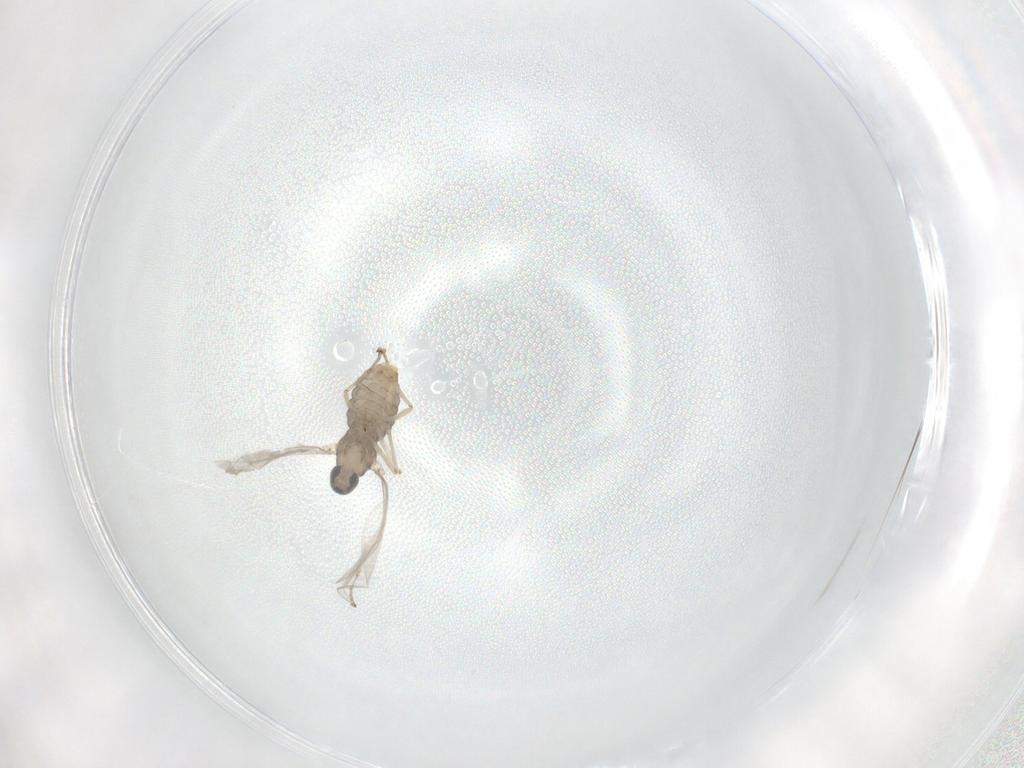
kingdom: Animalia
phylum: Arthropoda
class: Insecta
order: Diptera
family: Cecidomyiidae
